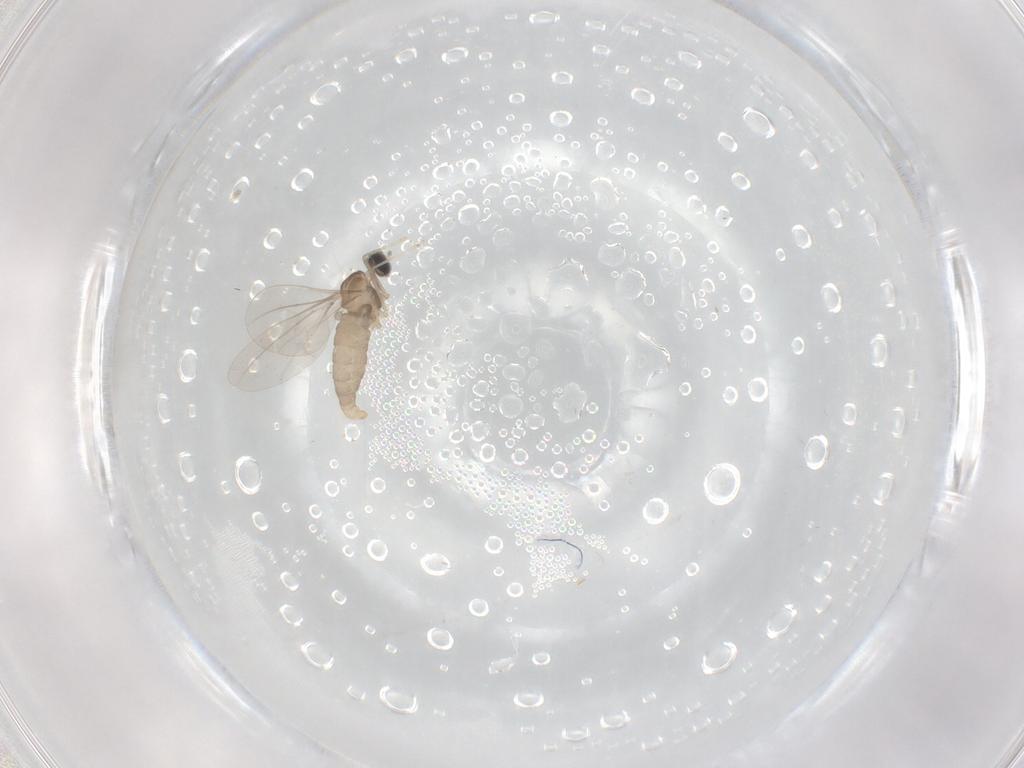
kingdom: Animalia
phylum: Arthropoda
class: Insecta
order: Diptera
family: Cecidomyiidae
